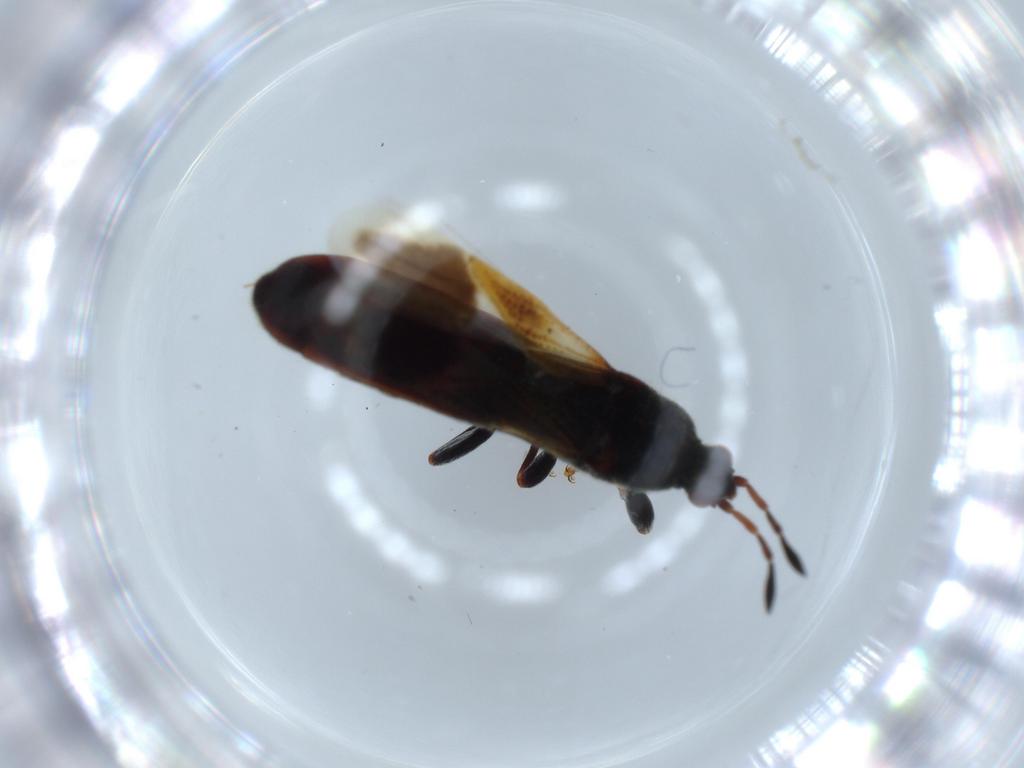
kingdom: Animalia
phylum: Arthropoda
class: Insecta
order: Hemiptera
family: Blissidae
